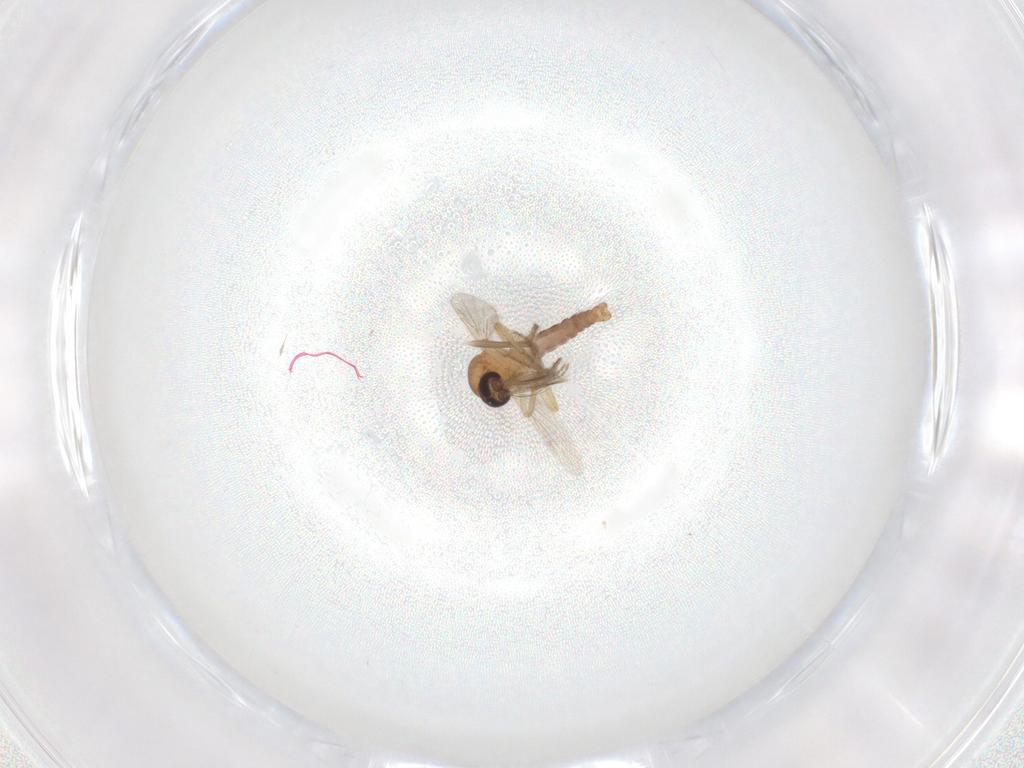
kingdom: Animalia
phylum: Arthropoda
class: Insecta
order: Diptera
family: Ceratopogonidae
